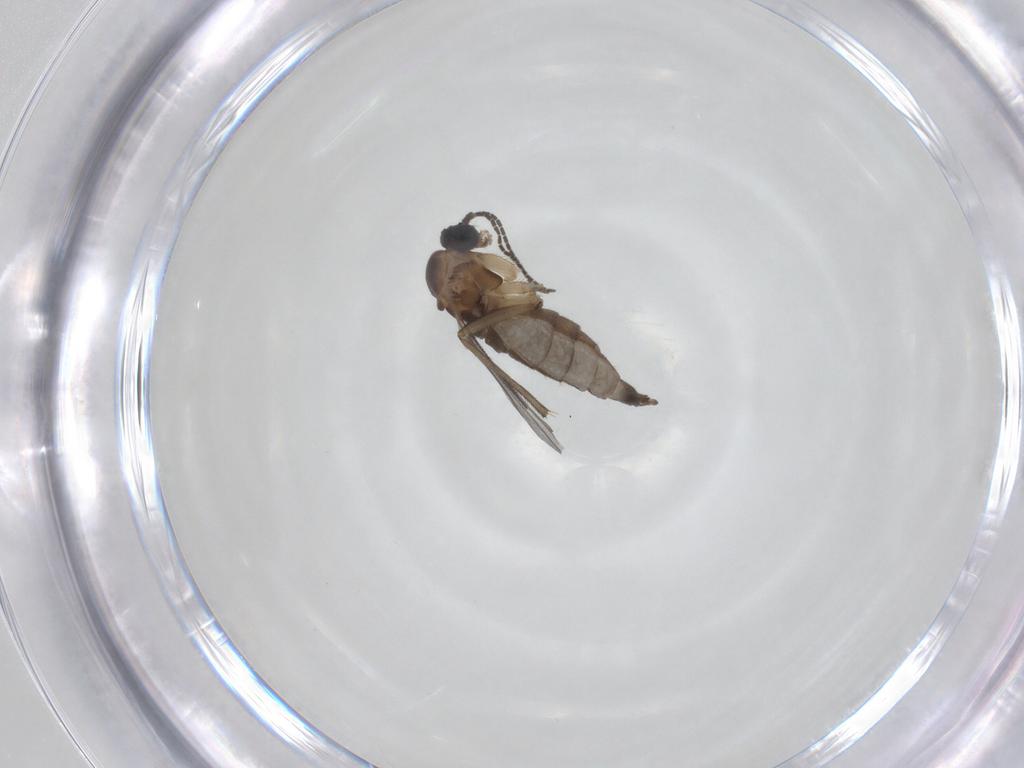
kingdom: Animalia
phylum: Arthropoda
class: Insecta
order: Diptera
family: Sciaridae
